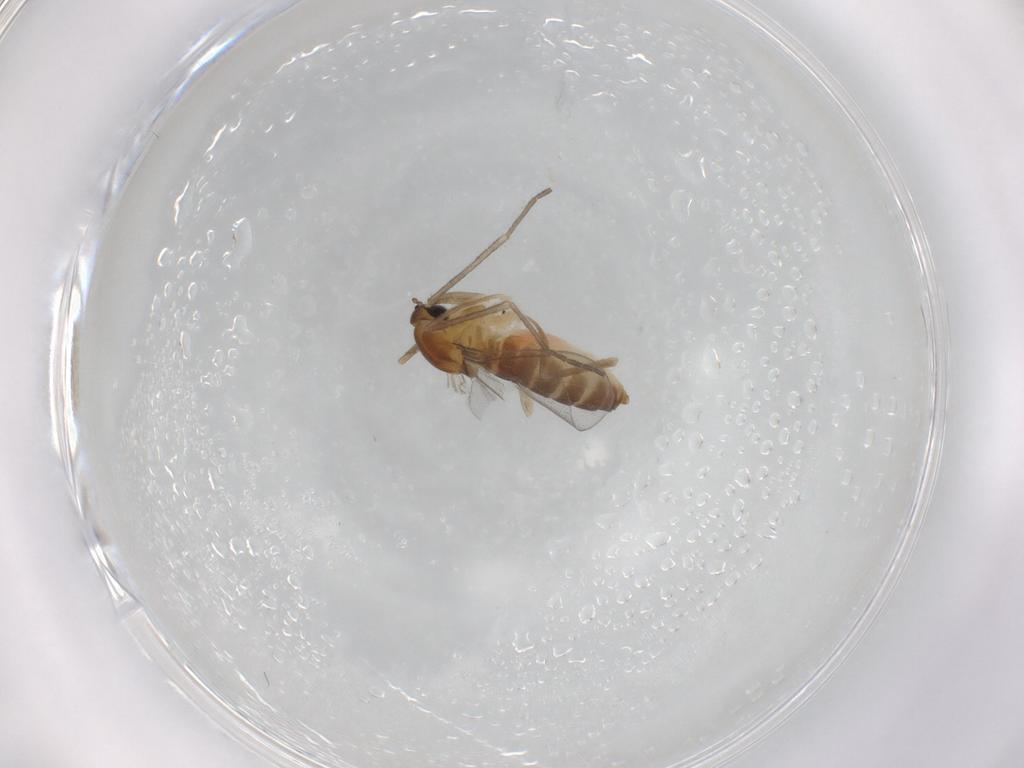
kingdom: Animalia
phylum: Arthropoda
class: Insecta
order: Diptera
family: Cecidomyiidae
